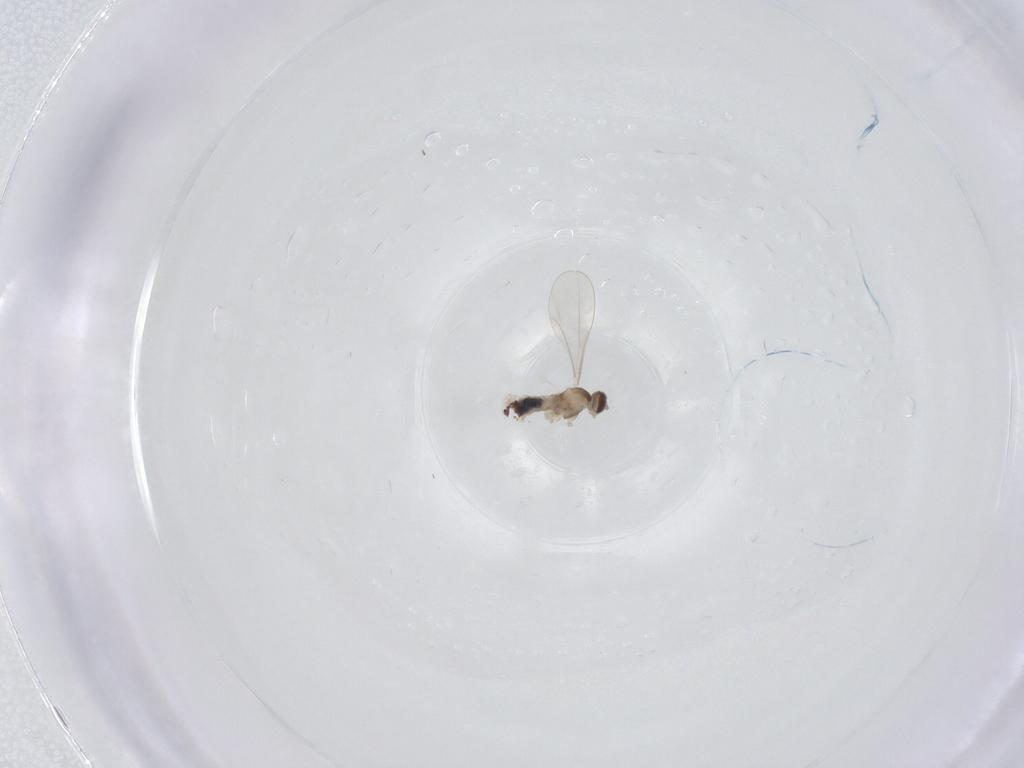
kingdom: Animalia
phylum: Arthropoda
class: Insecta
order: Diptera
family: Cecidomyiidae
